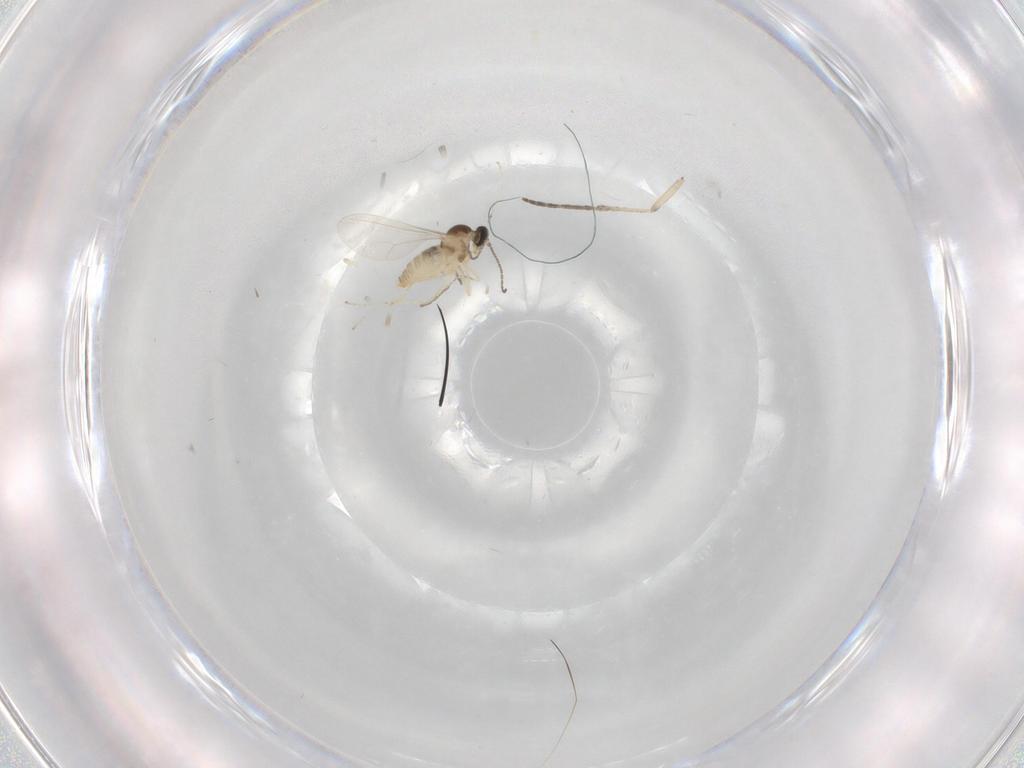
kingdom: Animalia
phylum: Arthropoda
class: Insecta
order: Diptera
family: Cecidomyiidae
